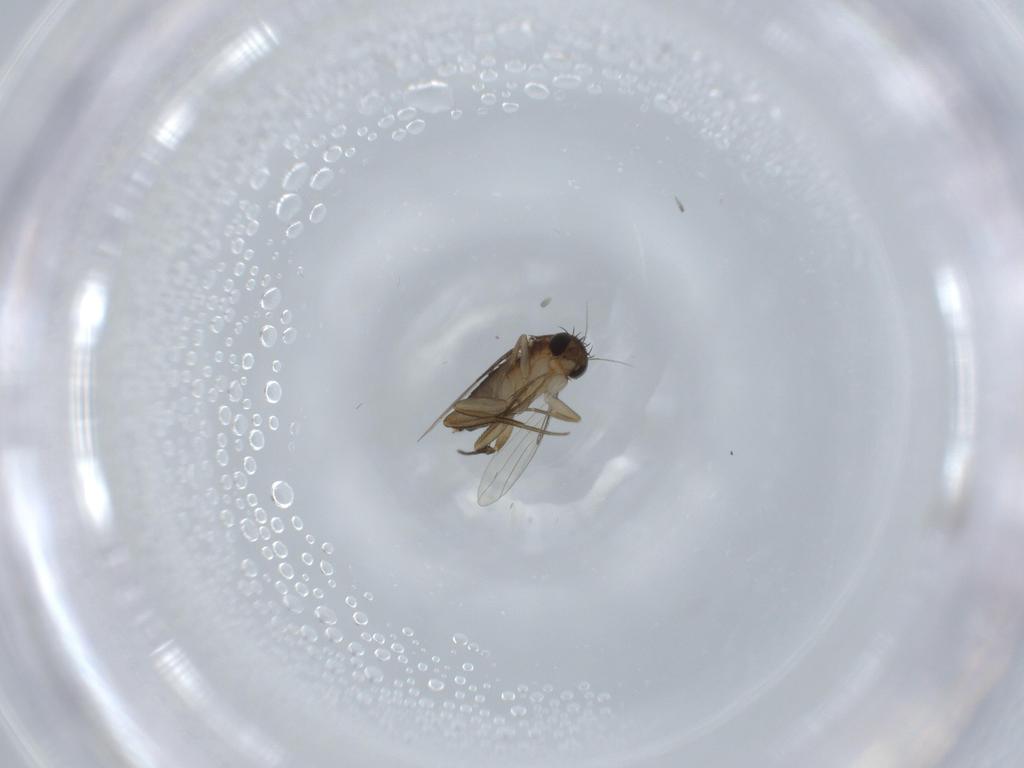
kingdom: Animalia
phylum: Arthropoda
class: Insecta
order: Diptera
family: Phoridae
